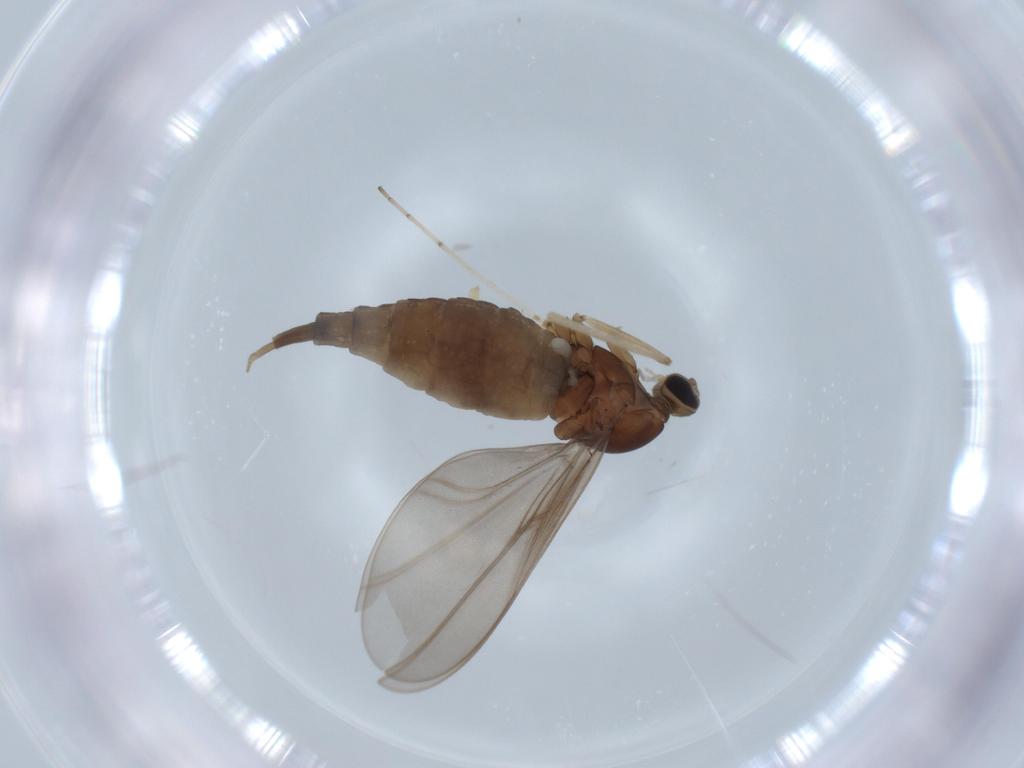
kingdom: Animalia
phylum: Arthropoda
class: Insecta
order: Diptera
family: Cecidomyiidae
